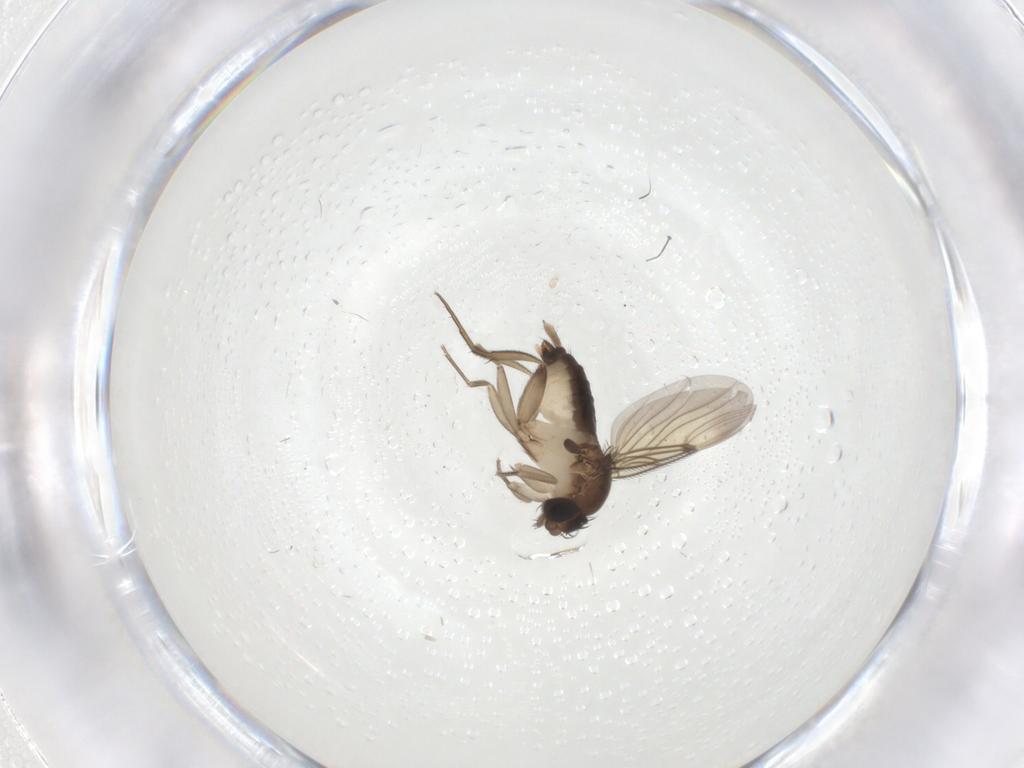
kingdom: Animalia
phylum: Arthropoda
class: Insecta
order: Diptera
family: Phoridae
